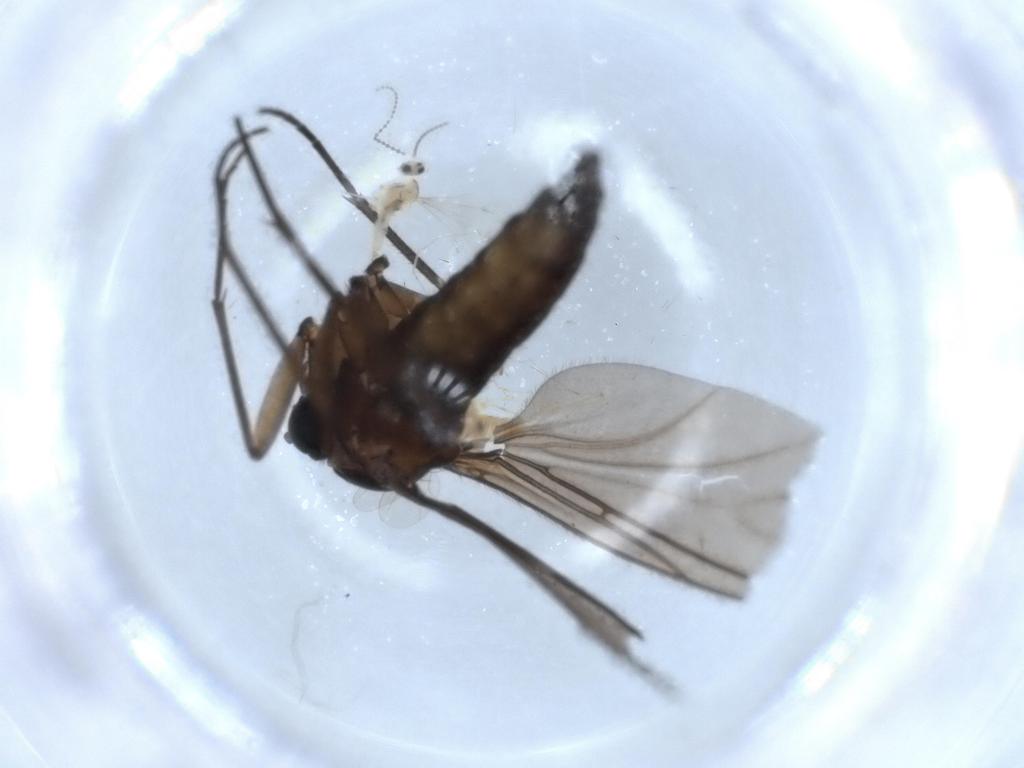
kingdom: Animalia
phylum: Arthropoda
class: Insecta
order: Diptera
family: Sciaridae
